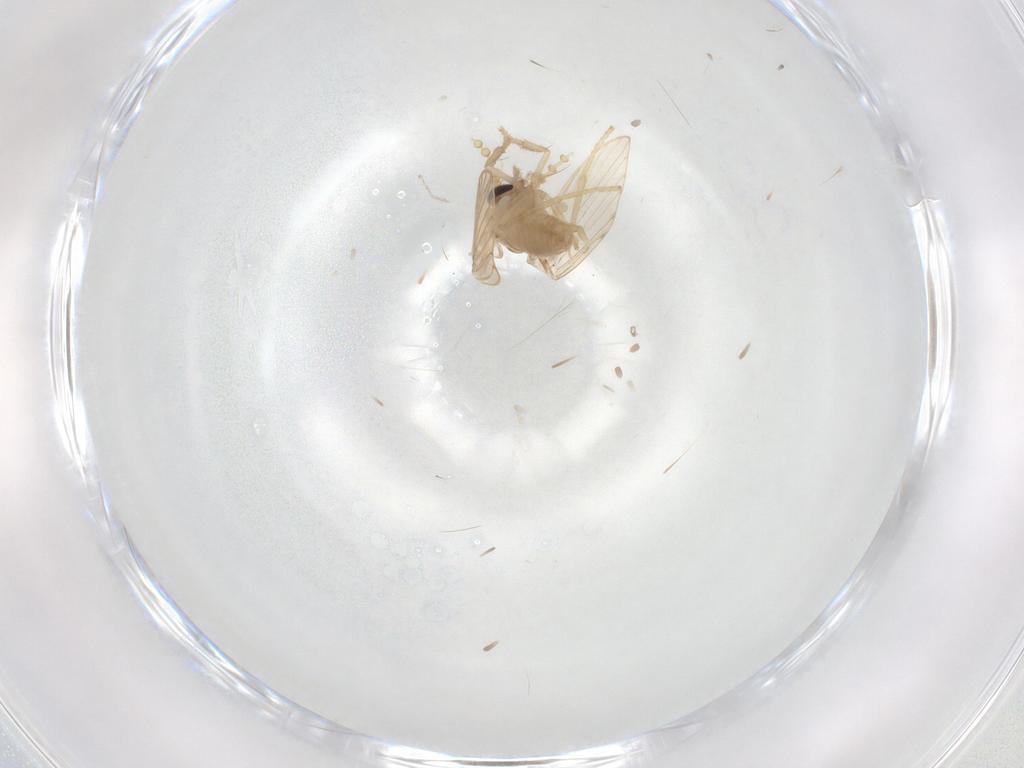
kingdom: Animalia
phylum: Arthropoda
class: Insecta
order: Diptera
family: Psychodidae
